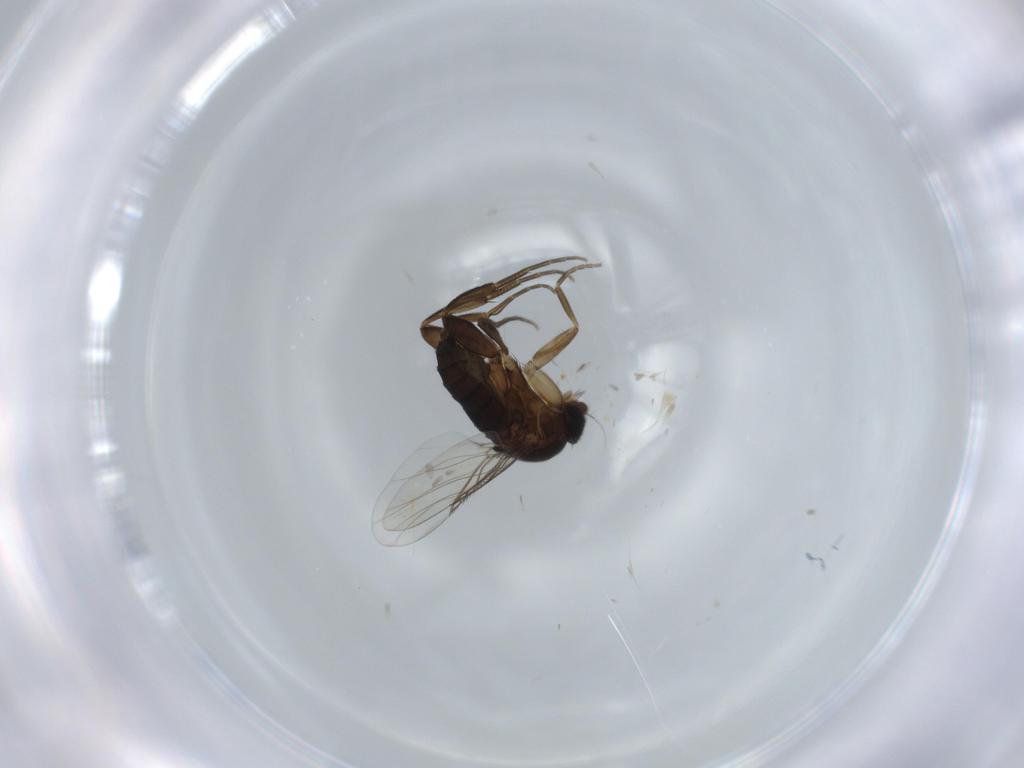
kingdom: Animalia
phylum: Arthropoda
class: Insecta
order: Diptera
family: Phoridae
